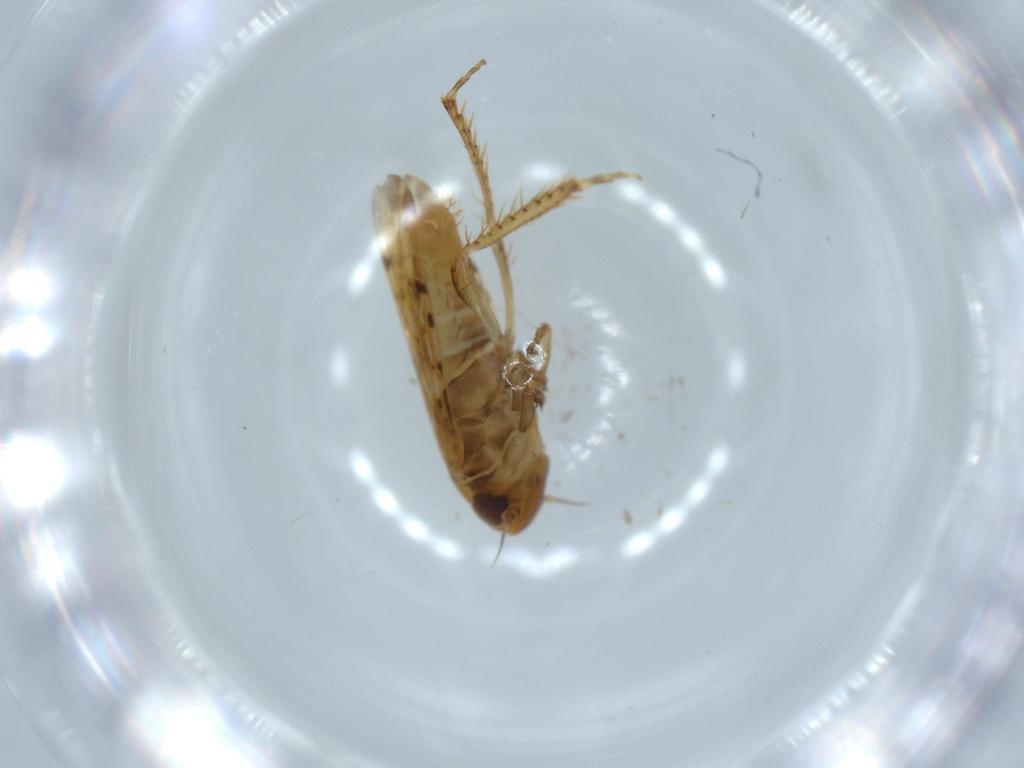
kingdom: Animalia
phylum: Arthropoda
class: Insecta
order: Hemiptera
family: Cicadellidae
